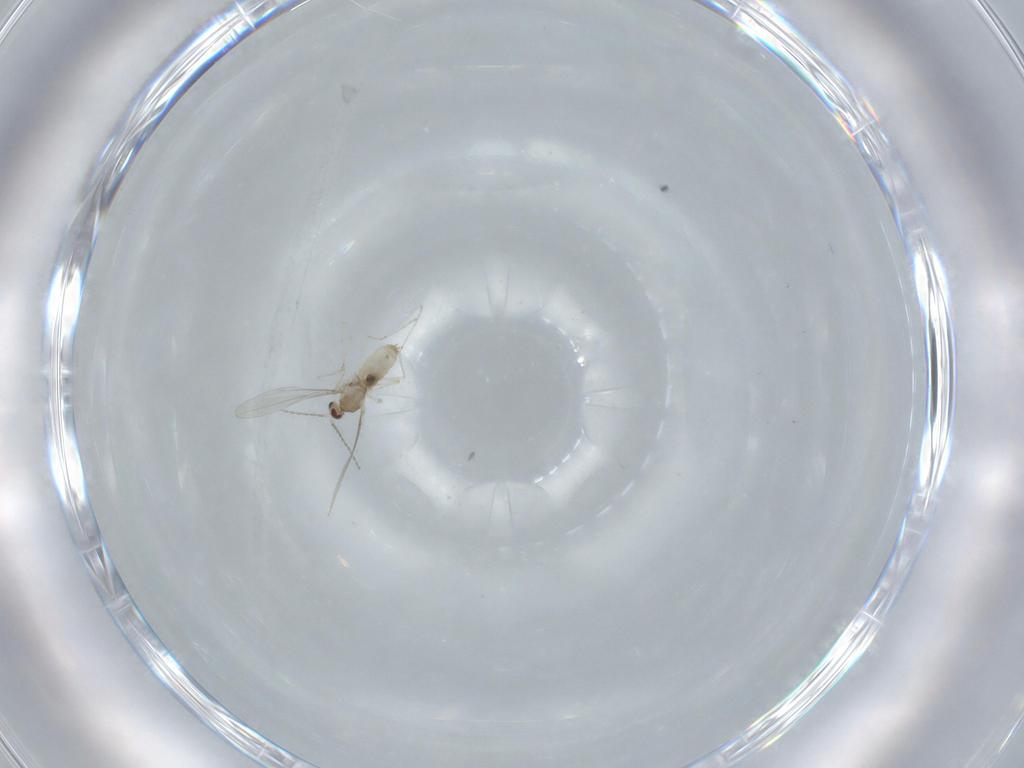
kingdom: Animalia
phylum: Arthropoda
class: Insecta
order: Diptera
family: Cecidomyiidae
